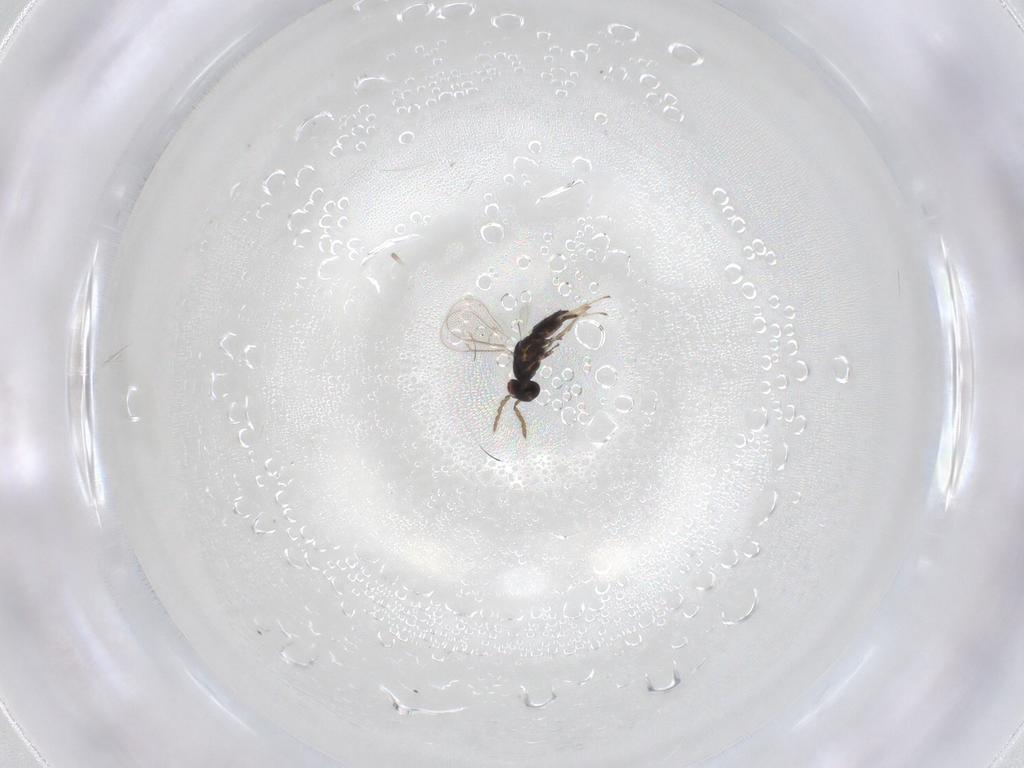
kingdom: Animalia
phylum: Arthropoda
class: Insecta
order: Hymenoptera
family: Eulophidae
